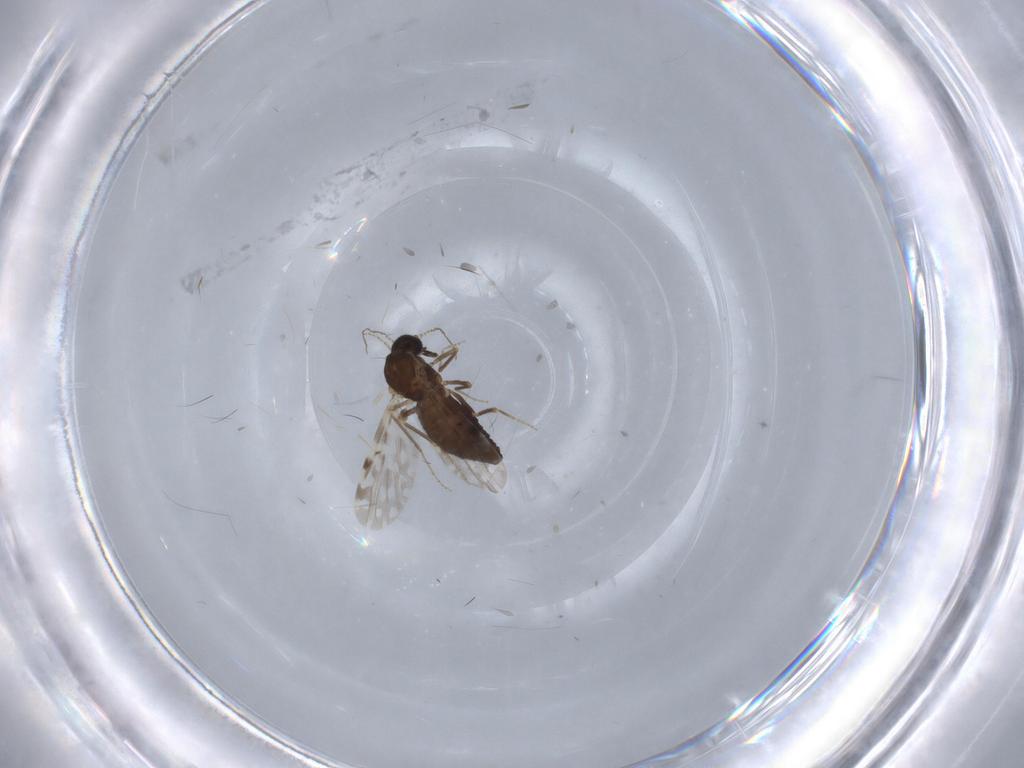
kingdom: Animalia
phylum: Arthropoda
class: Insecta
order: Diptera
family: Ceratopogonidae
